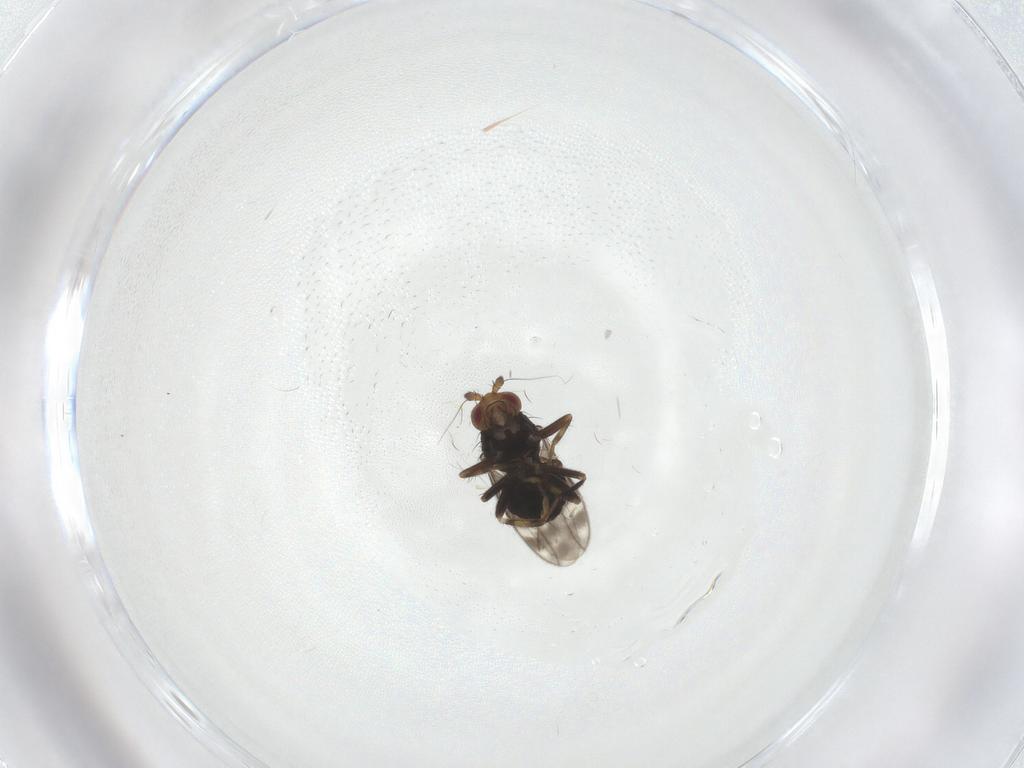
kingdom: Animalia
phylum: Arthropoda
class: Insecta
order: Diptera
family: Sphaeroceridae
